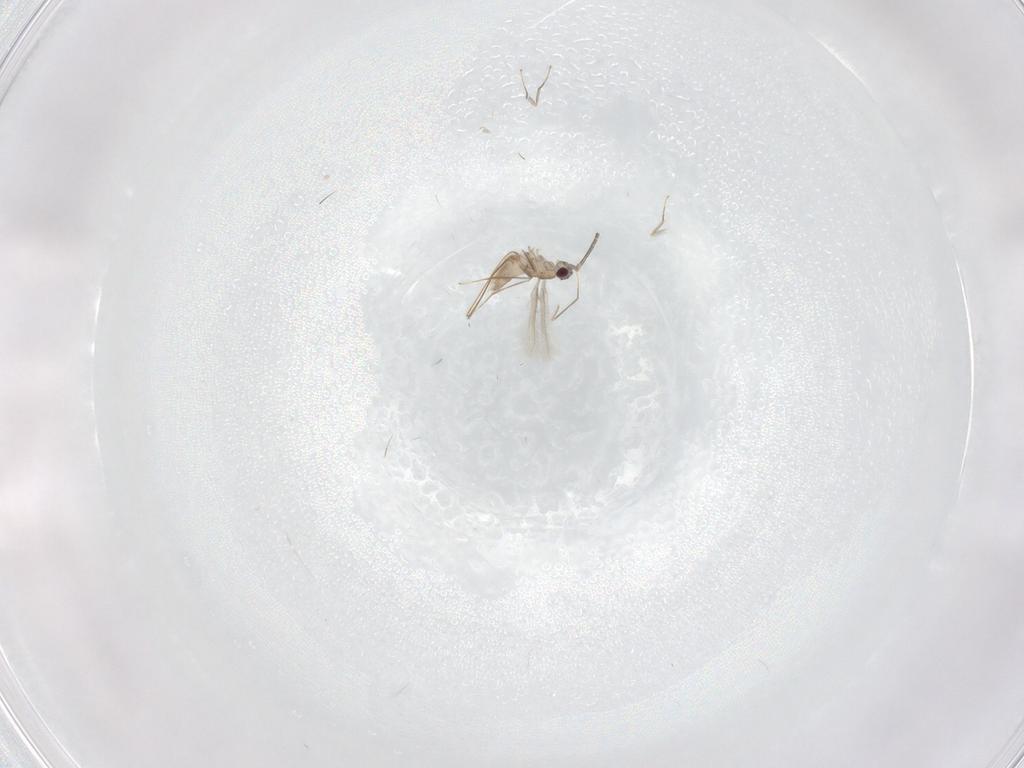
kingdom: Animalia
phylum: Arthropoda
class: Insecta
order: Hymenoptera
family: Mymaridae
